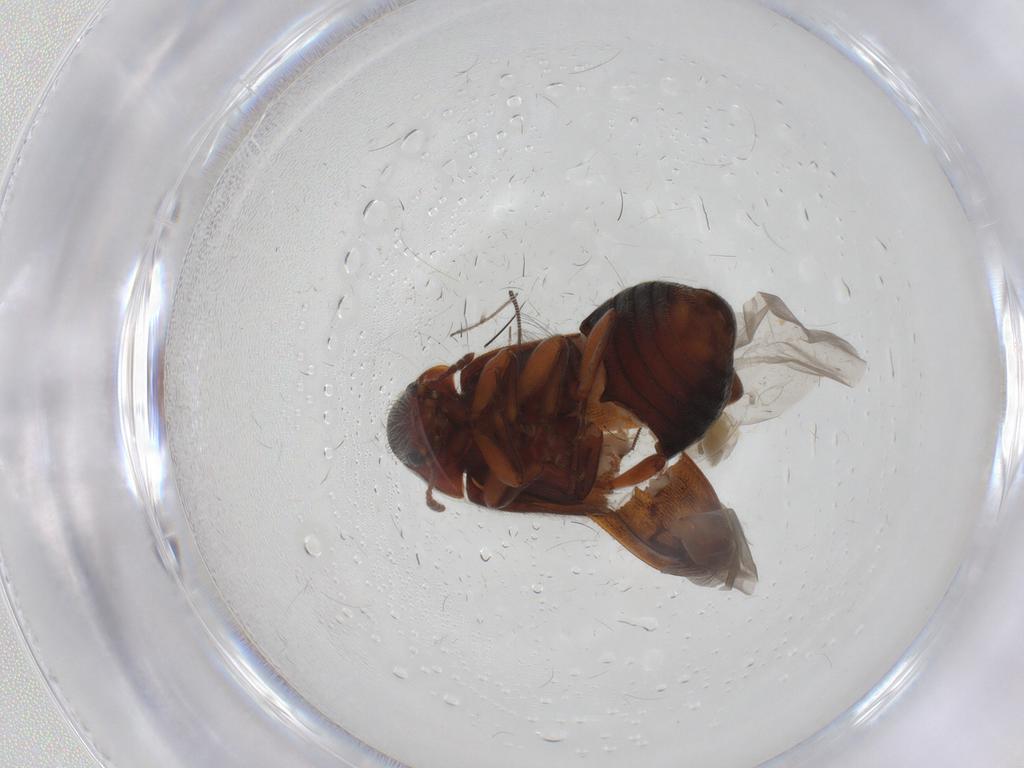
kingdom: Animalia
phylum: Arthropoda
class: Insecta
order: Coleoptera
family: Byturidae
